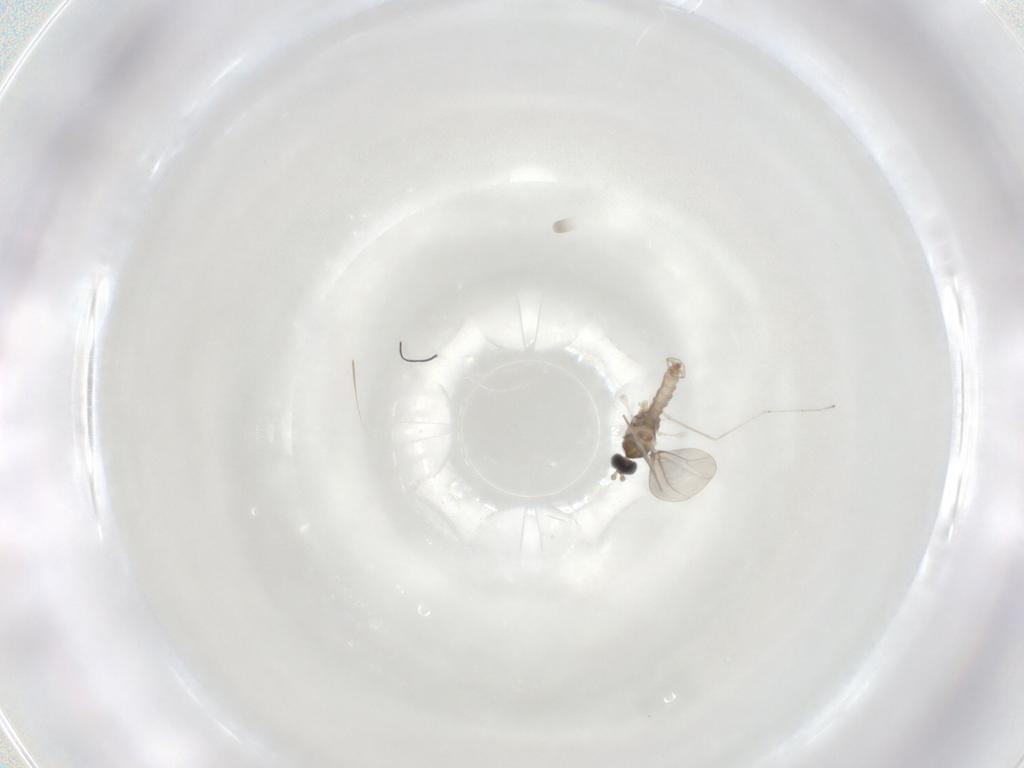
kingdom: Animalia
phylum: Arthropoda
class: Insecta
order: Diptera
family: Cecidomyiidae
